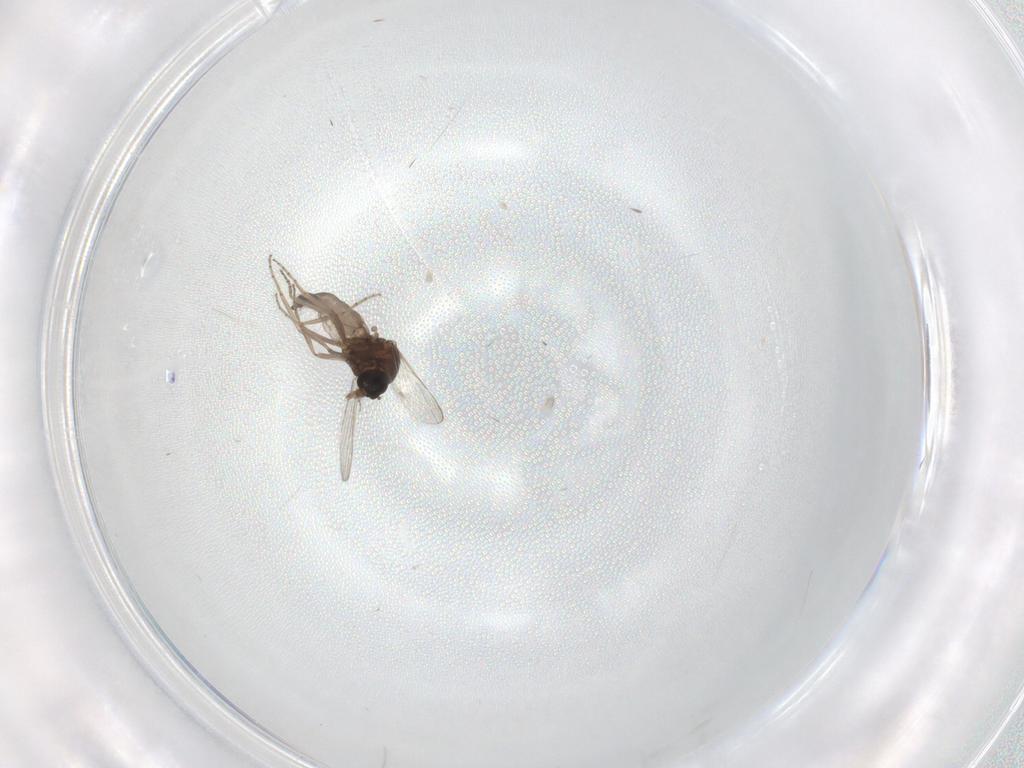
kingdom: Animalia
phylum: Arthropoda
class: Insecta
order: Diptera
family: Ceratopogonidae
